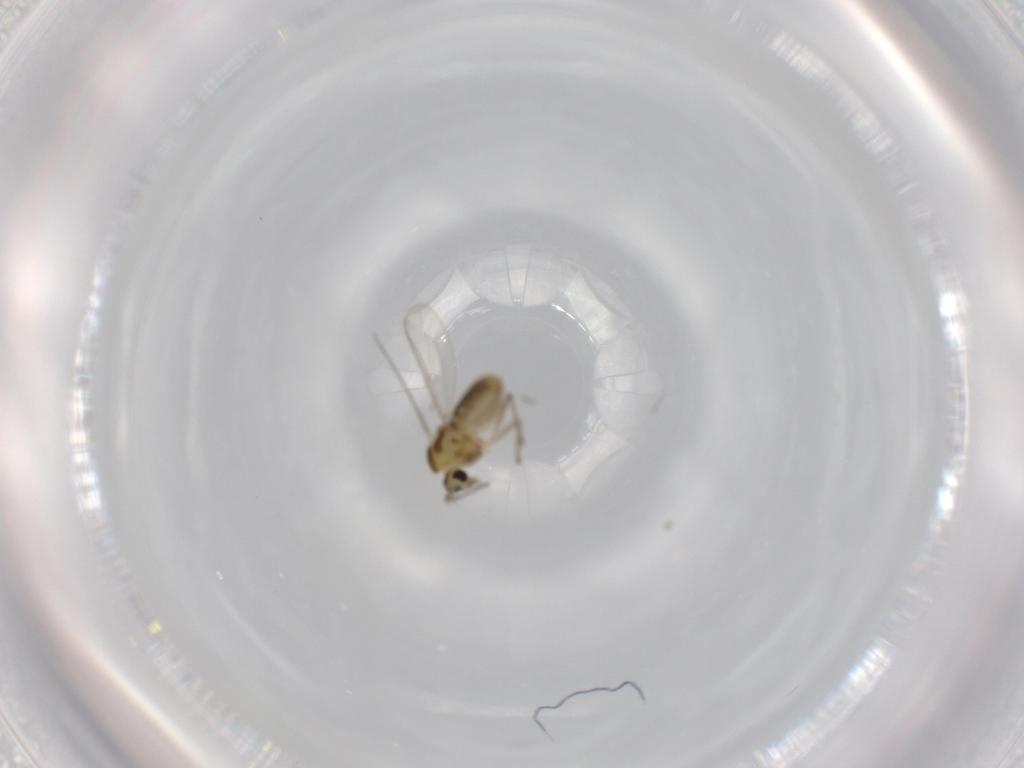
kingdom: Animalia
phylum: Arthropoda
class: Insecta
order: Diptera
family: Chironomidae
